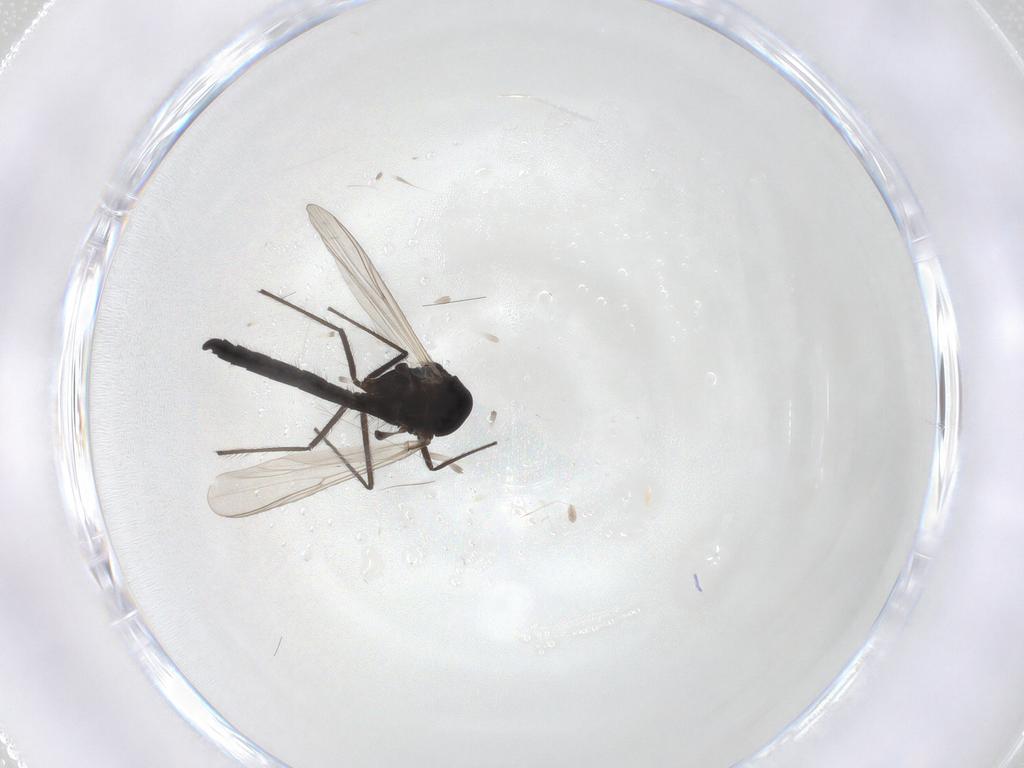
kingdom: Animalia
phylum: Arthropoda
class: Insecta
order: Diptera
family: Chironomidae
